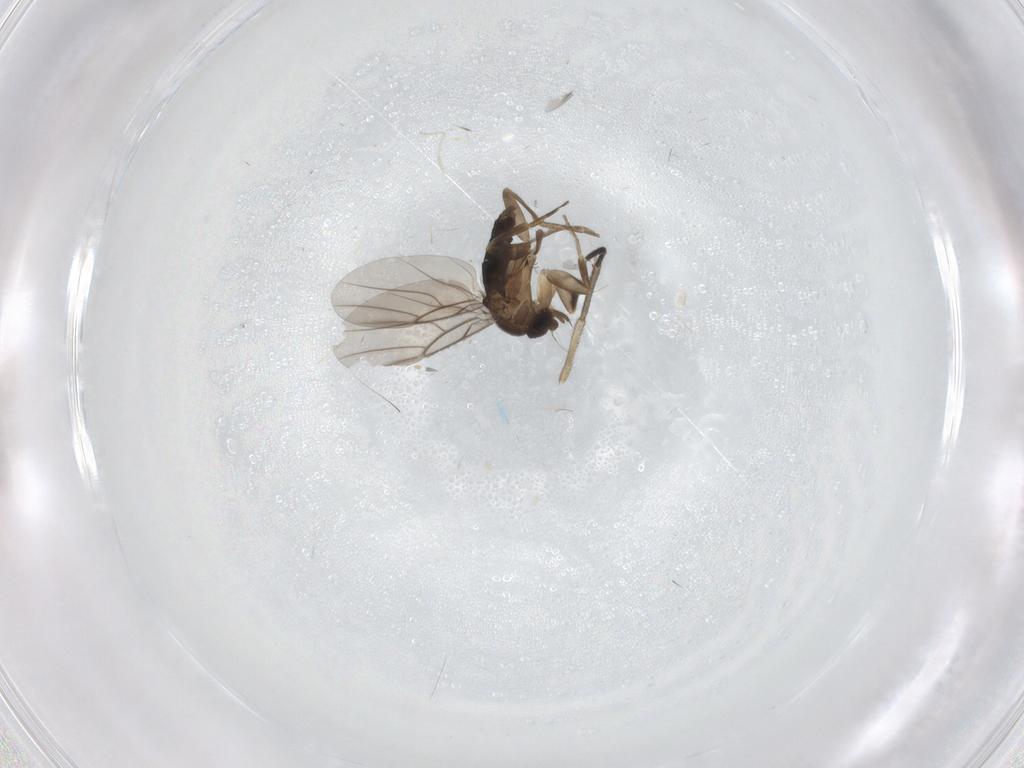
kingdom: Animalia
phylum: Arthropoda
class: Insecta
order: Diptera
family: Phoridae
